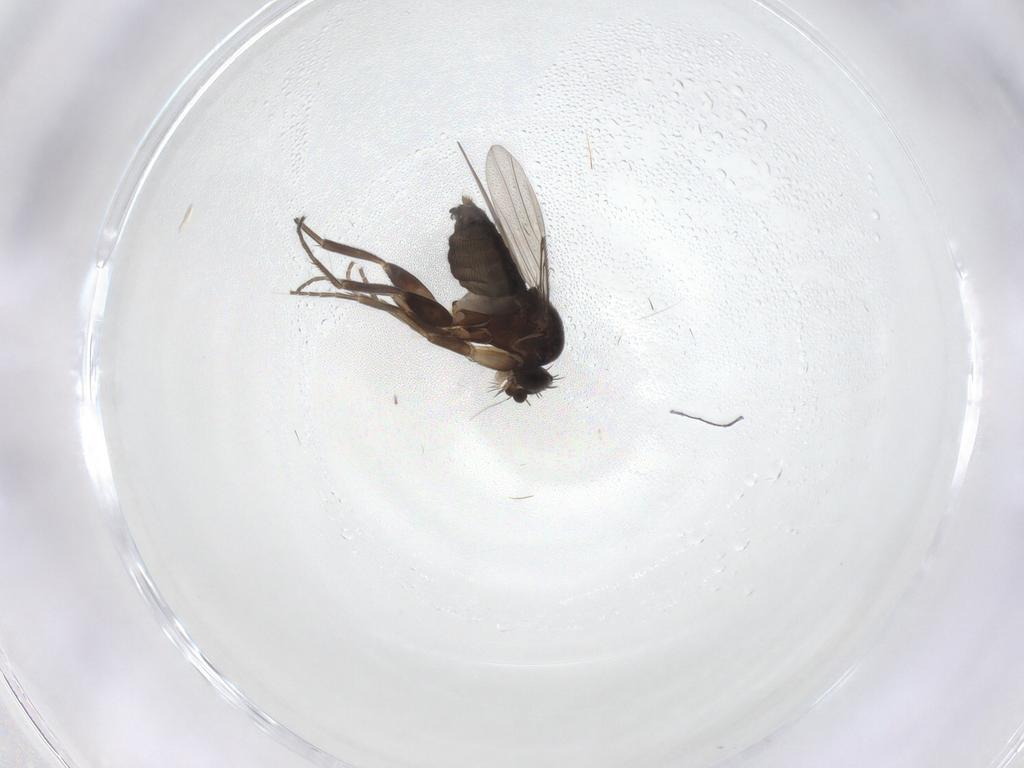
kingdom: Animalia
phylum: Arthropoda
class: Insecta
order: Diptera
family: Phoridae
